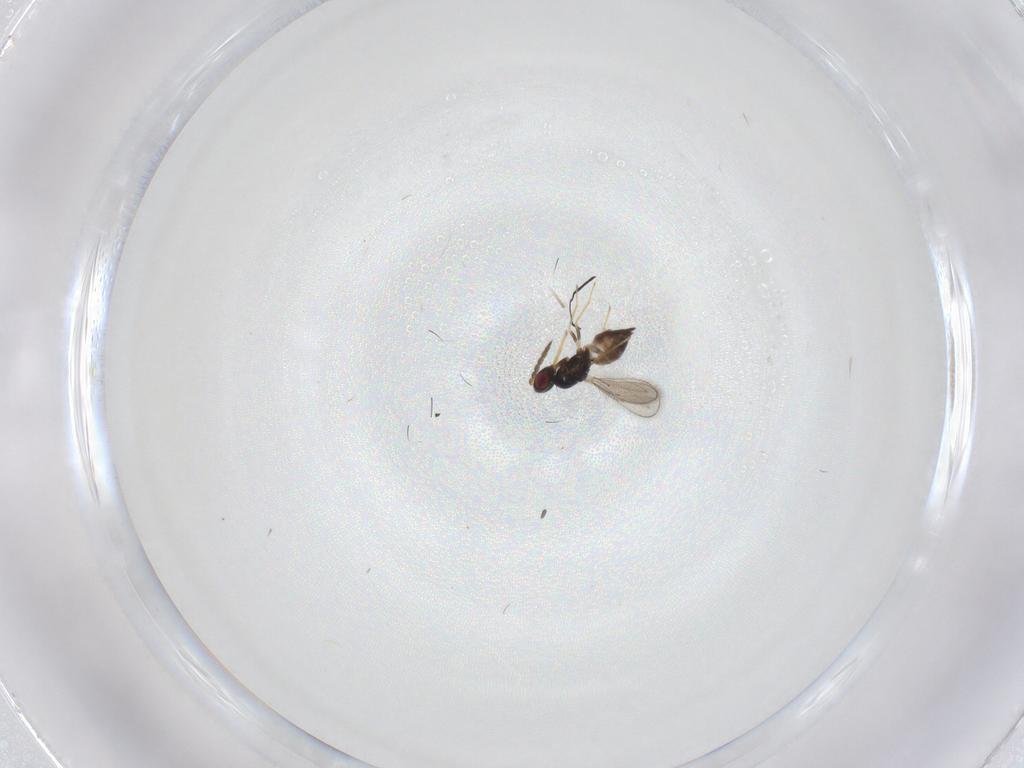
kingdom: Animalia
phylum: Arthropoda
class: Insecta
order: Hymenoptera
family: Eulophidae
